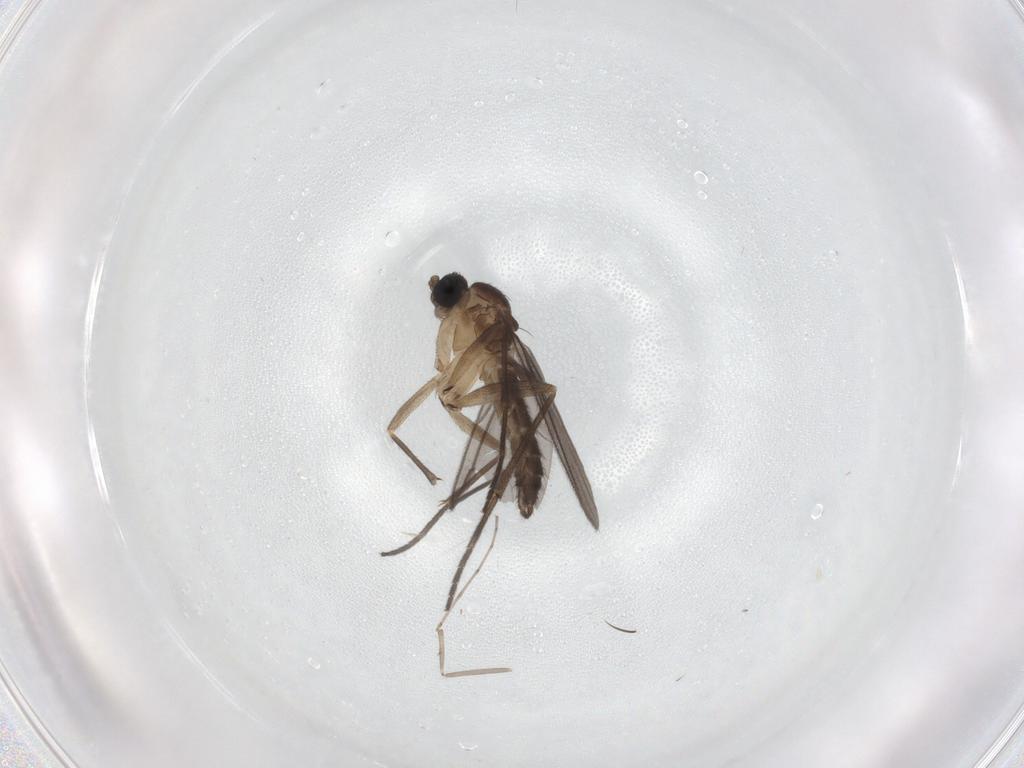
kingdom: Animalia
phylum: Arthropoda
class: Insecta
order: Diptera
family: Sciaridae
